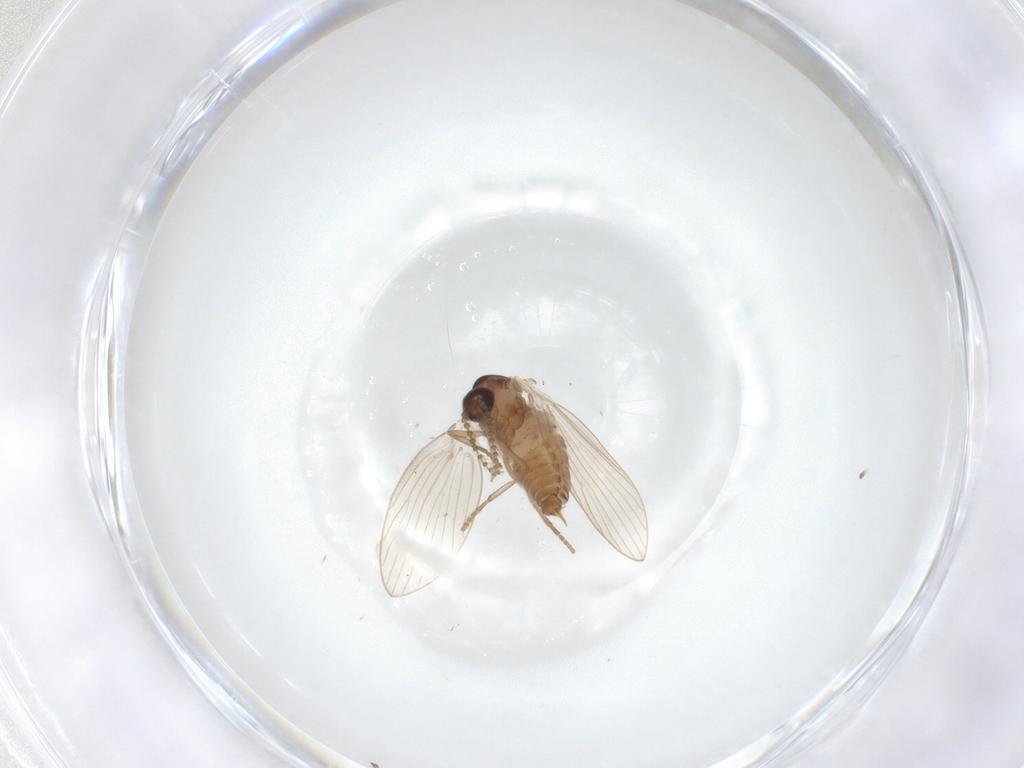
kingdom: Animalia
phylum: Arthropoda
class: Insecta
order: Diptera
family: Psychodidae
